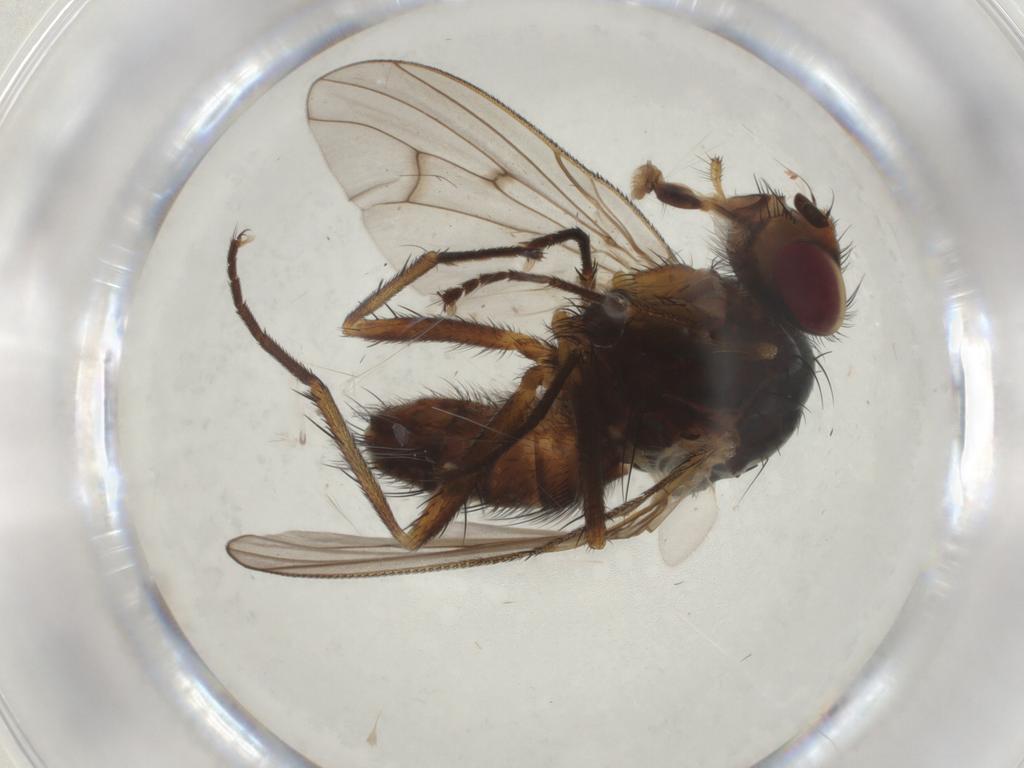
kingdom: Animalia
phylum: Arthropoda
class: Insecta
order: Diptera
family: Anthomyiidae
